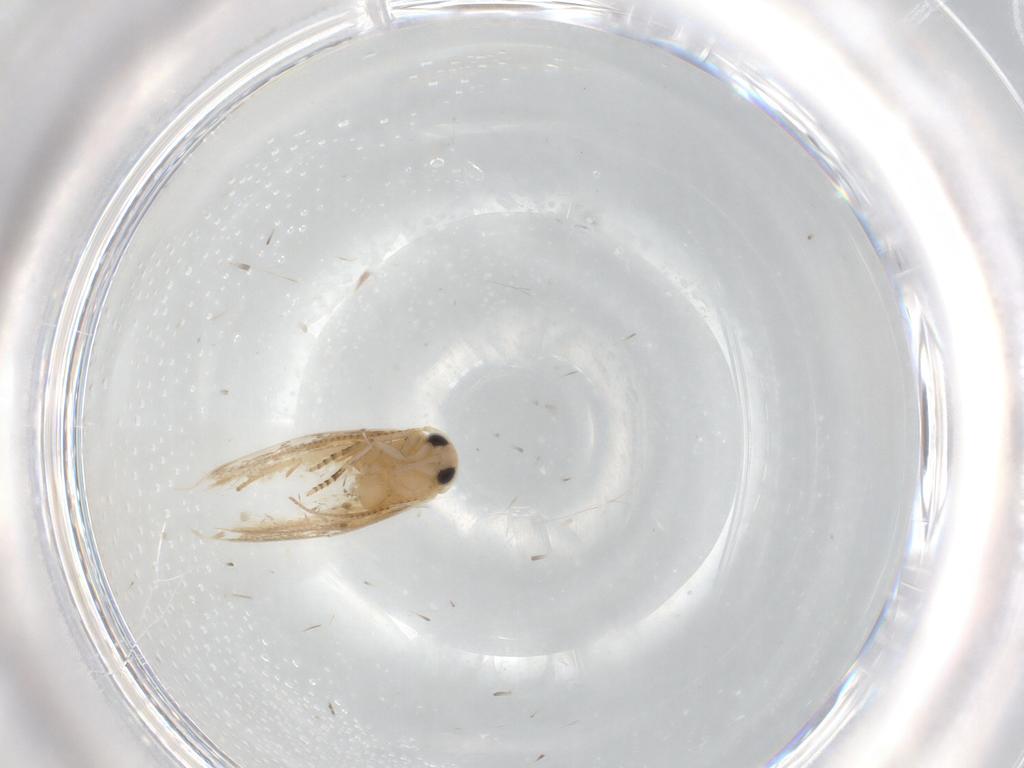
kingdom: Animalia
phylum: Arthropoda
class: Insecta
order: Lepidoptera
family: Bucculatricidae
